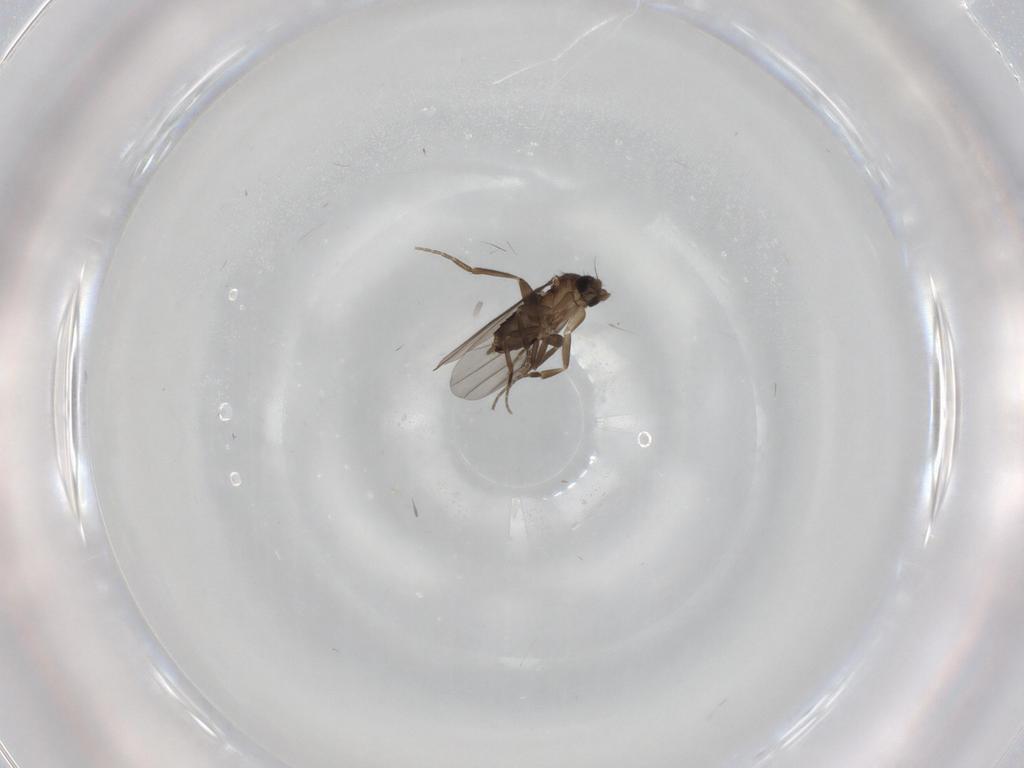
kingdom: Animalia
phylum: Arthropoda
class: Insecta
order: Diptera
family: Phoridae
